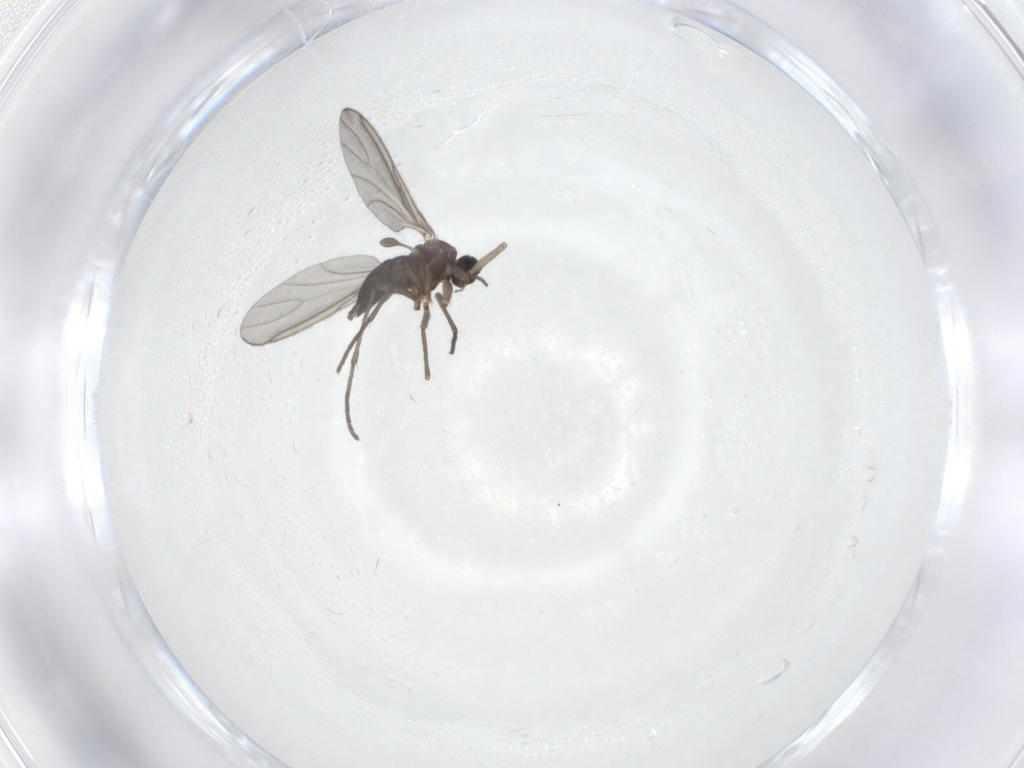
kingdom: Animalia
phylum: Arthropoda
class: Insecta
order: Diptera
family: Sciaridae
